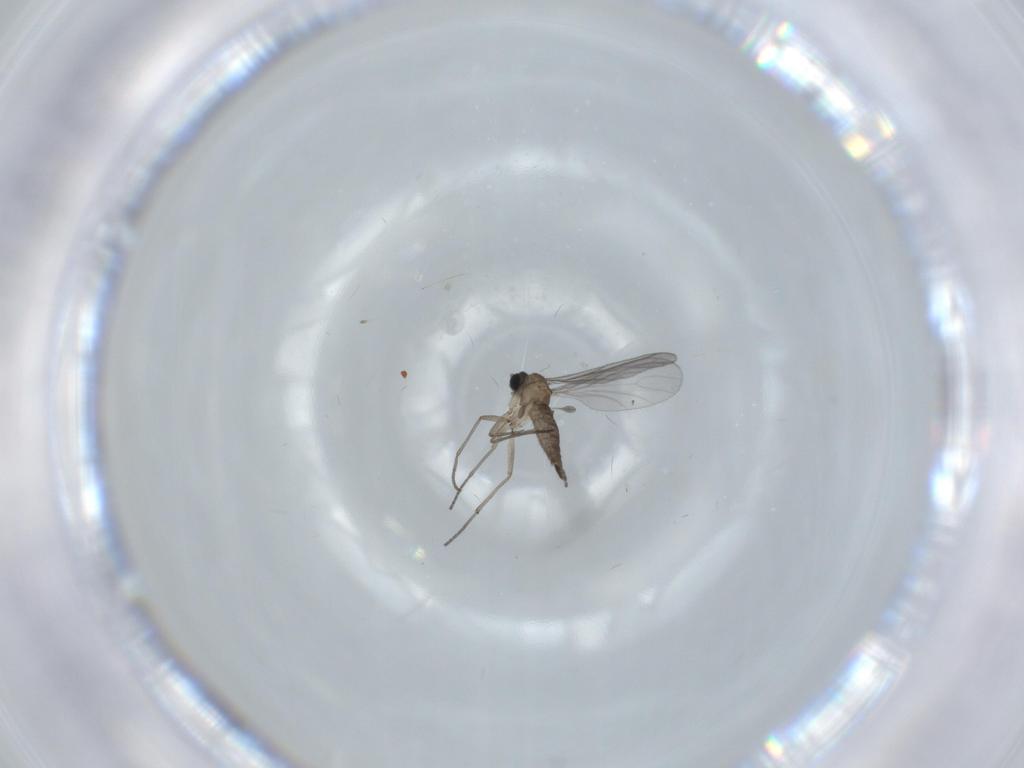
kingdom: Animalia
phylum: Arthropoda
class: Insecta
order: Diptera
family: Sciaridae
